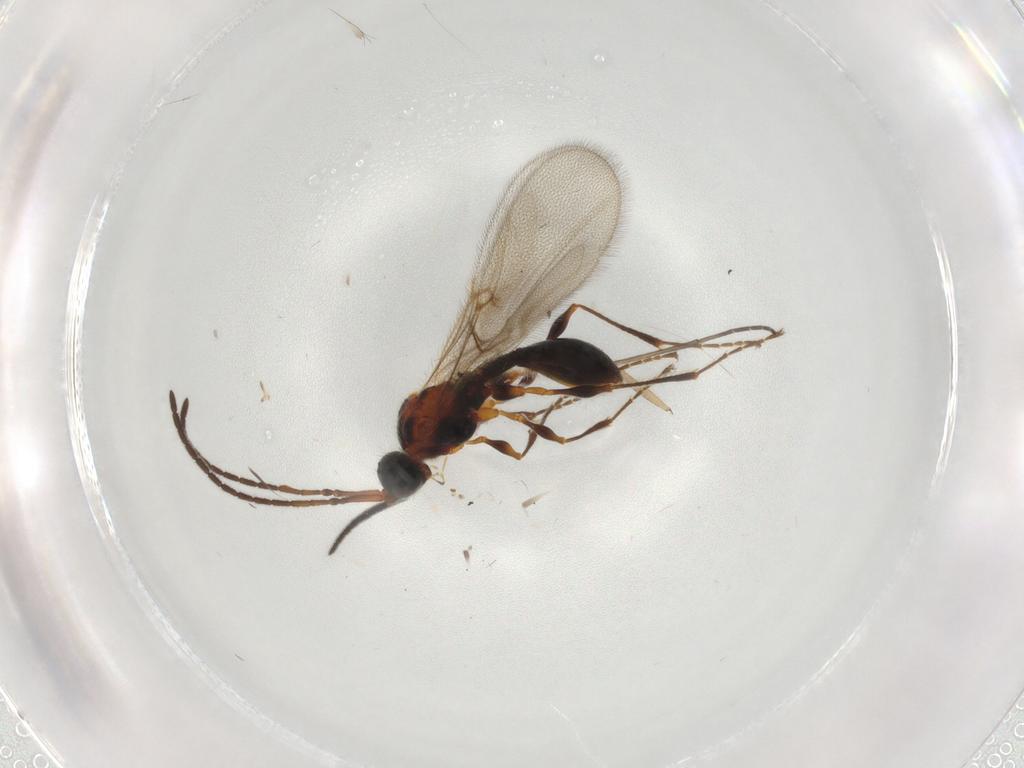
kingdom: Animalia
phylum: Arthropoda
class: Insecta
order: Hymenoptera
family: Diapriidae
